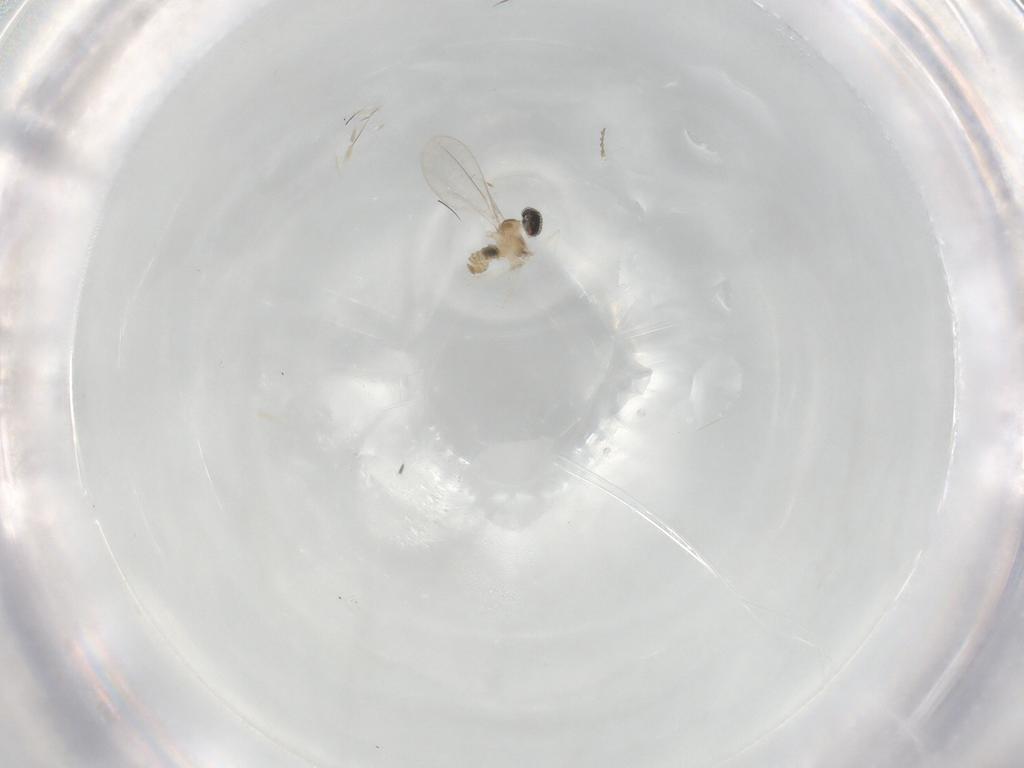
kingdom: Animalia
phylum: Arthropoda
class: Insecta
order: Diptera
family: Cecidomyiidae
